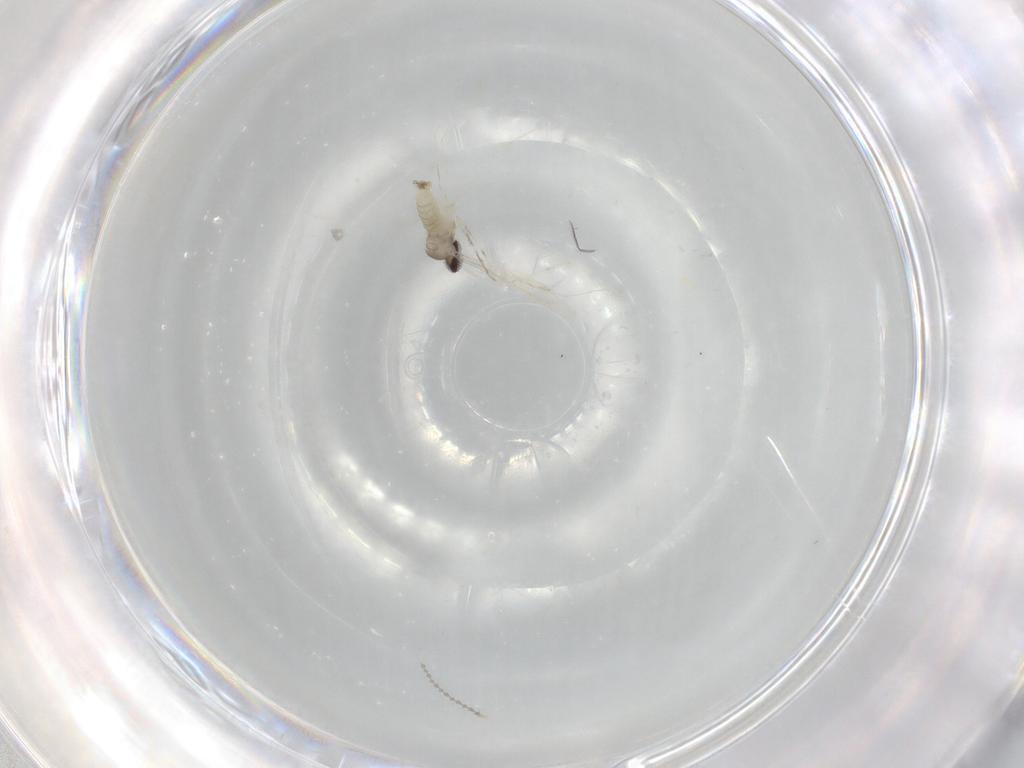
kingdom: Animalia
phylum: Arthropoda
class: Insecta
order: Diptera
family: Cecidomyiidae
